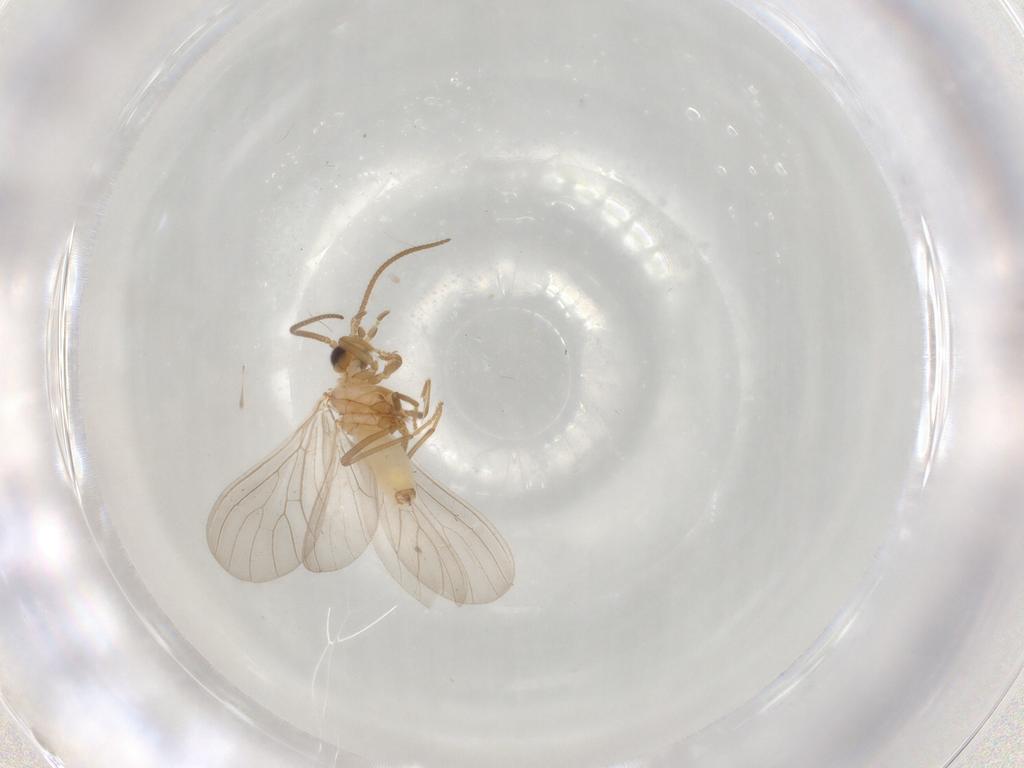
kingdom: Animalia
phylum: Arthropoda
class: Insecta
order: Neuroptera
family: Coniopterygidae
